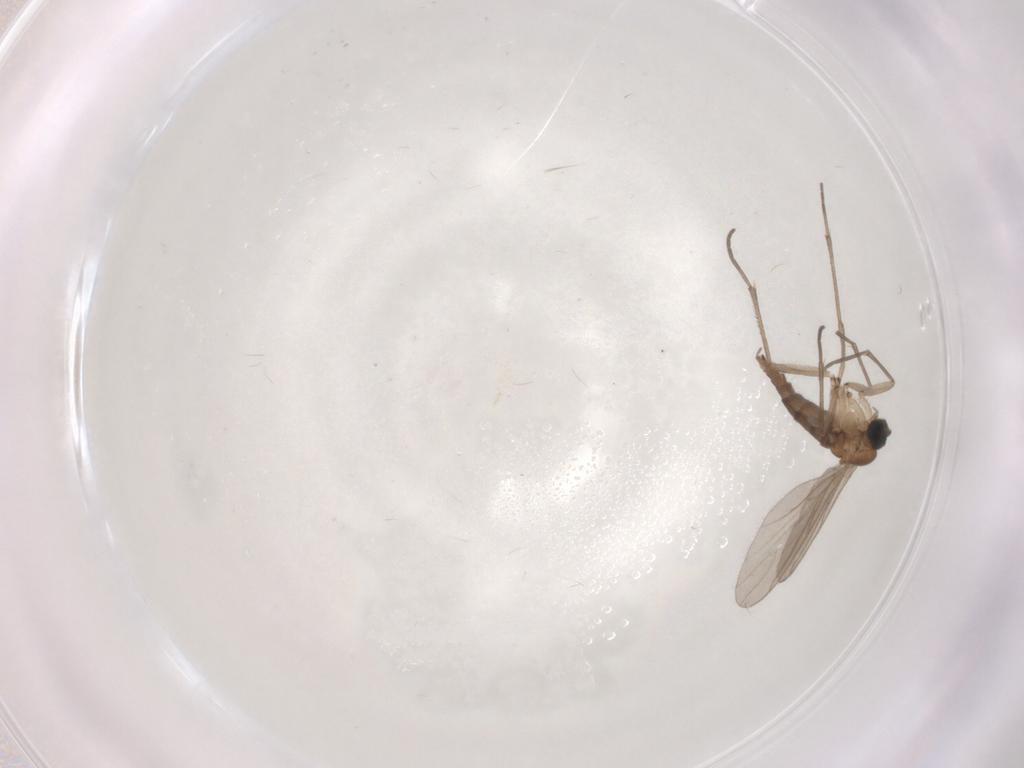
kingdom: Animalia
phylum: Arthropoda
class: Insecta
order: Diptera
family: Sciaridae
